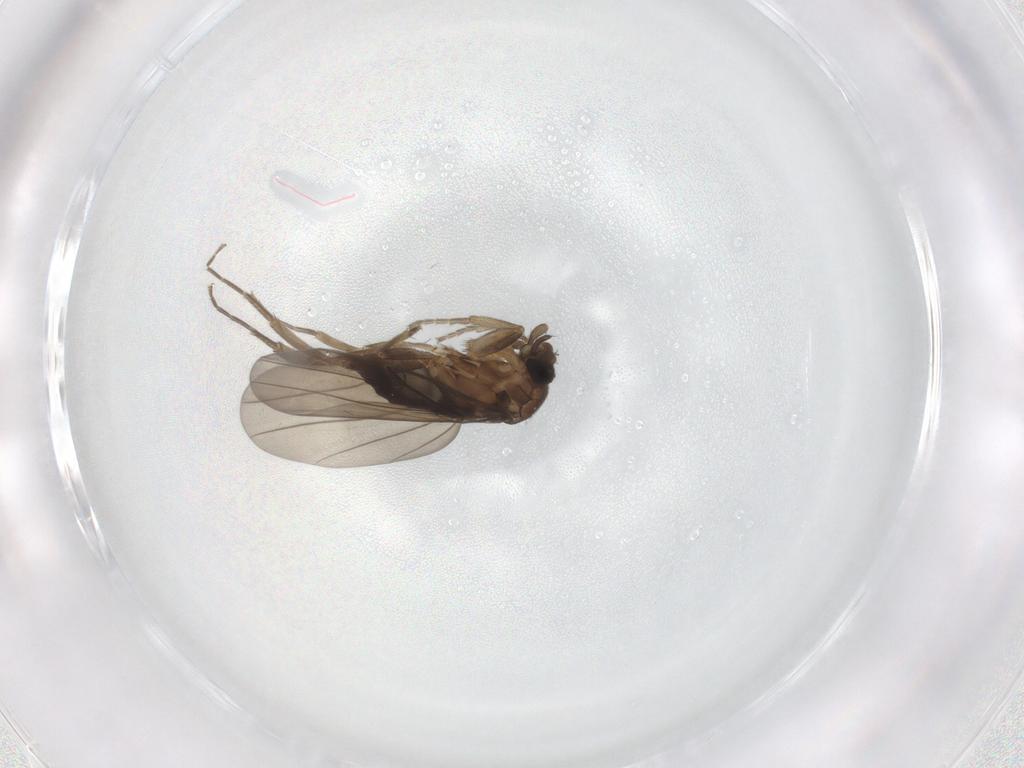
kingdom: Animalia
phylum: Arthropoda
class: Insecta
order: Diptera
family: Phoridae
